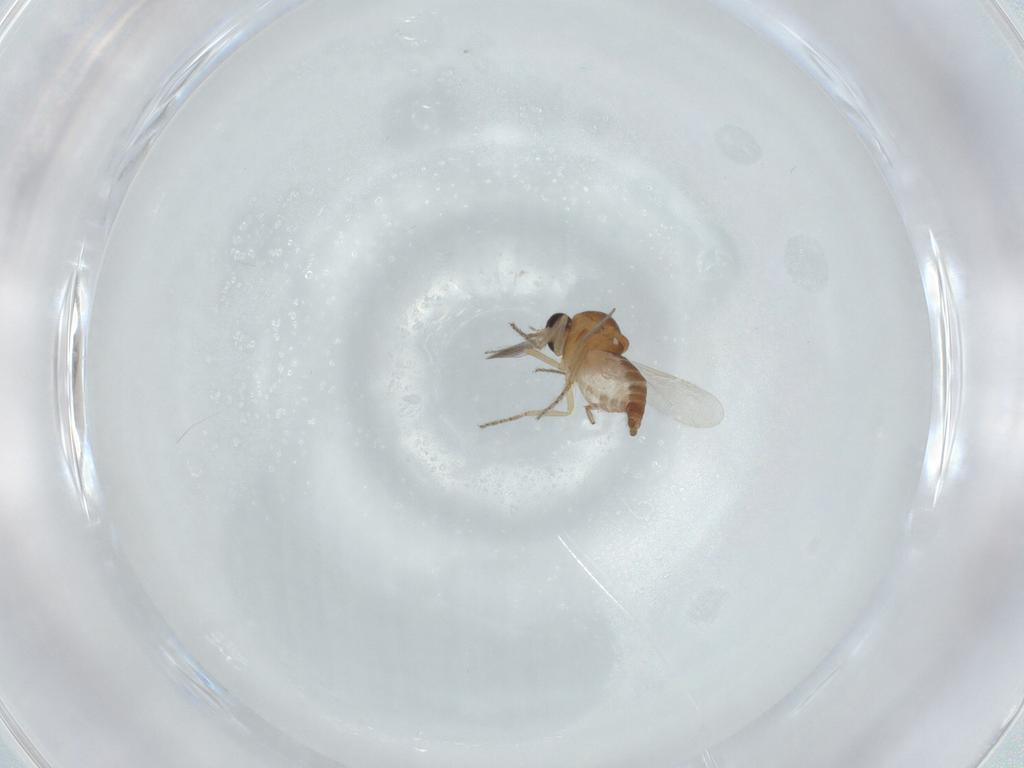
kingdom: Animalia
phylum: Arthropoda
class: Insecta
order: Diptera
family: Ceratopogonidae
